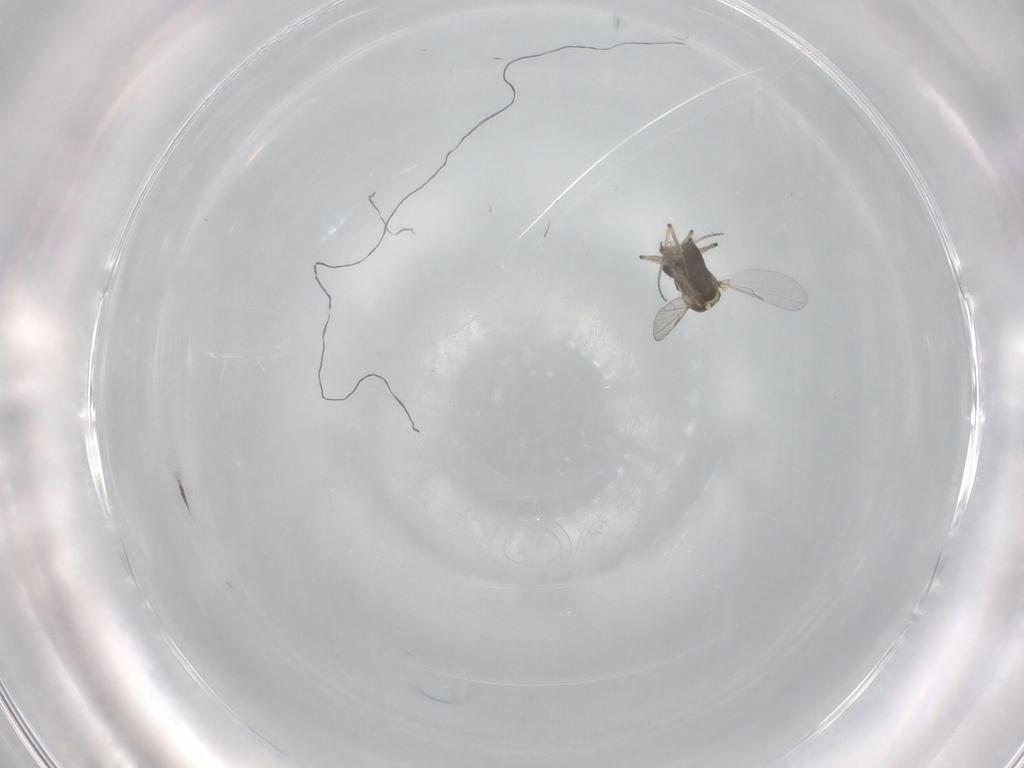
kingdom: Animalia
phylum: Arthropoda
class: Insecta
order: Diptera
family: Ceratopogonidae
